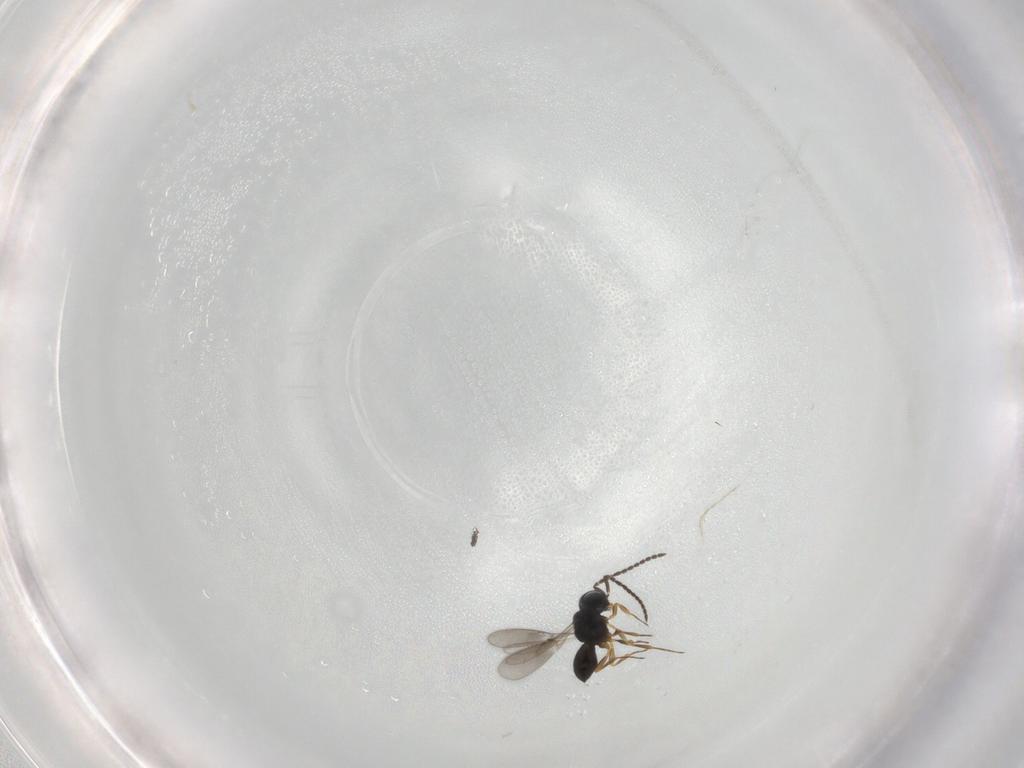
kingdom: Animalia
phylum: Arthropoda
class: Insecta
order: Hymenoptera
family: Scelionidae
